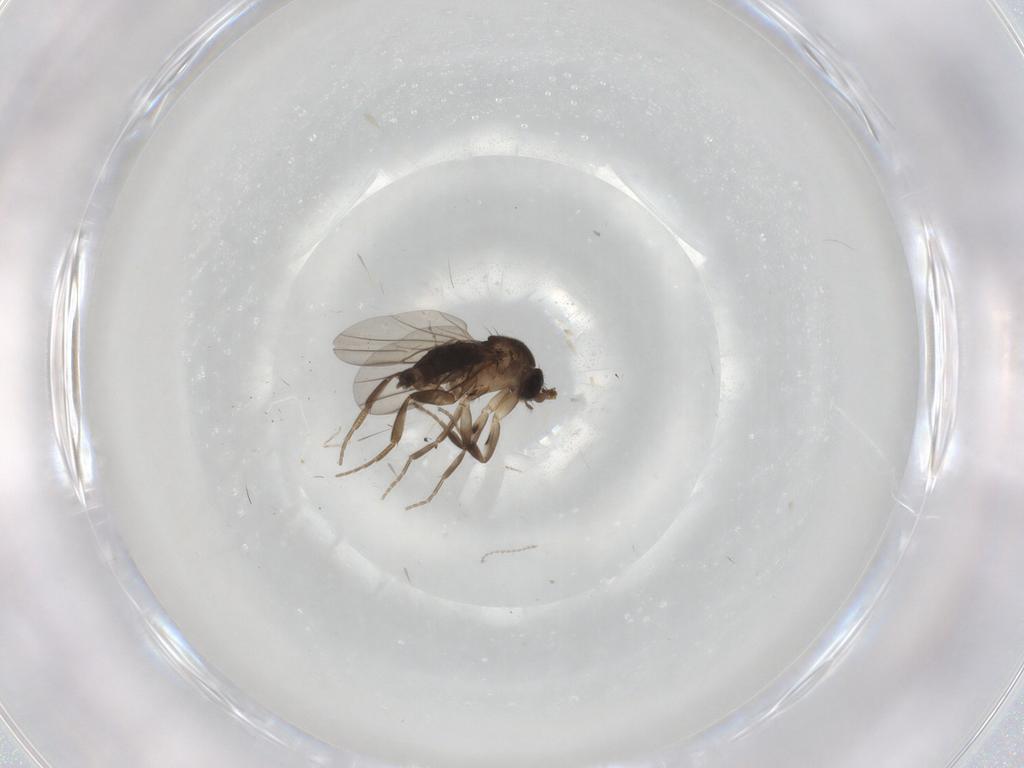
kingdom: Animalia
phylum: Arthropoda
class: Insecta
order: Diptera
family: Phoridae
